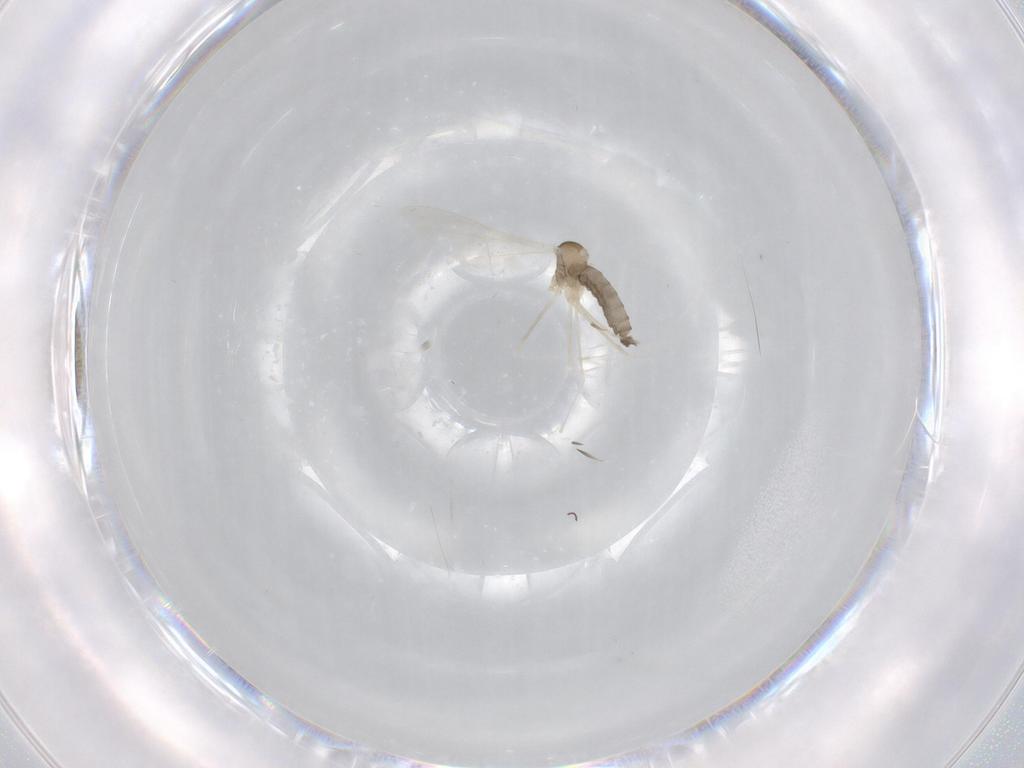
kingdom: Animalia
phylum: Arthropoda
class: Insecta
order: Diptera
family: Cecidomyiidae
